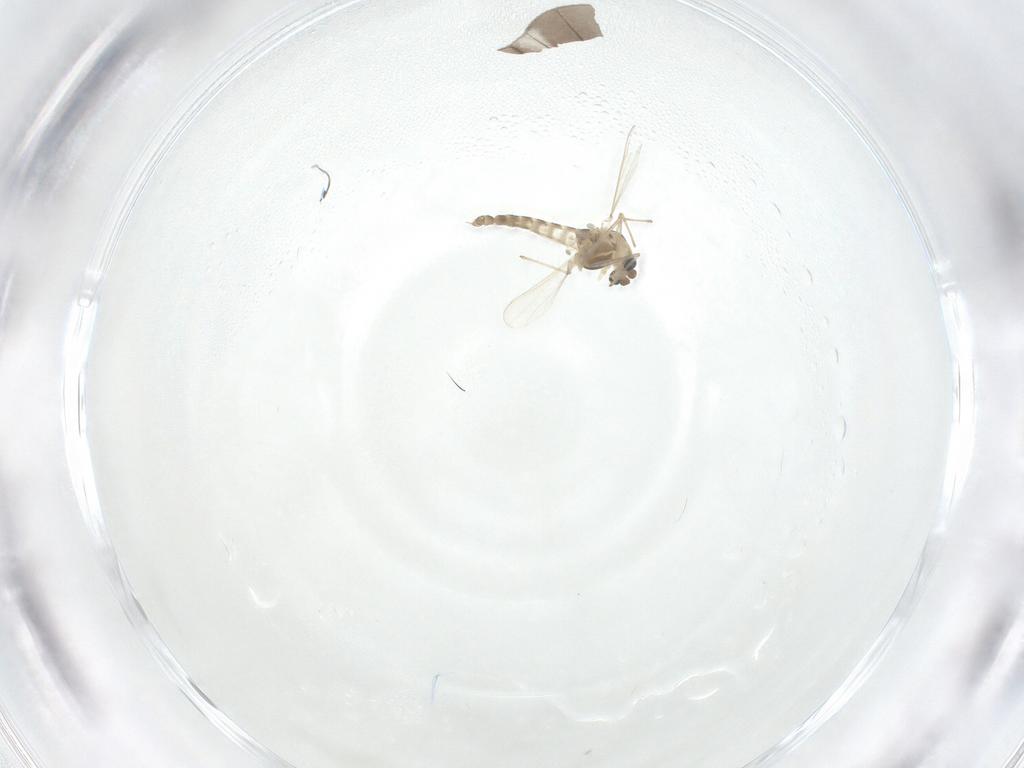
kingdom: Animalia
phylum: Arthropoda
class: Insecta
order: Diptera
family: Chironomidae
